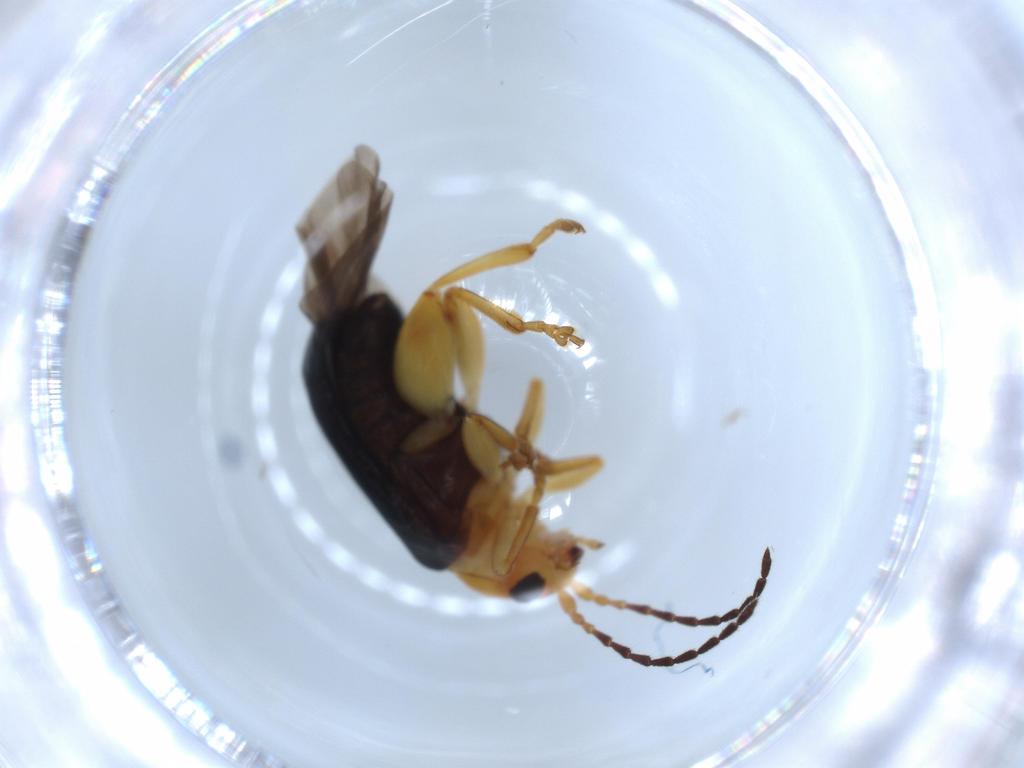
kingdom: Animalia
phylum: Arthropoda
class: Insecta
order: Coleoptera
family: Chrysomelidae
